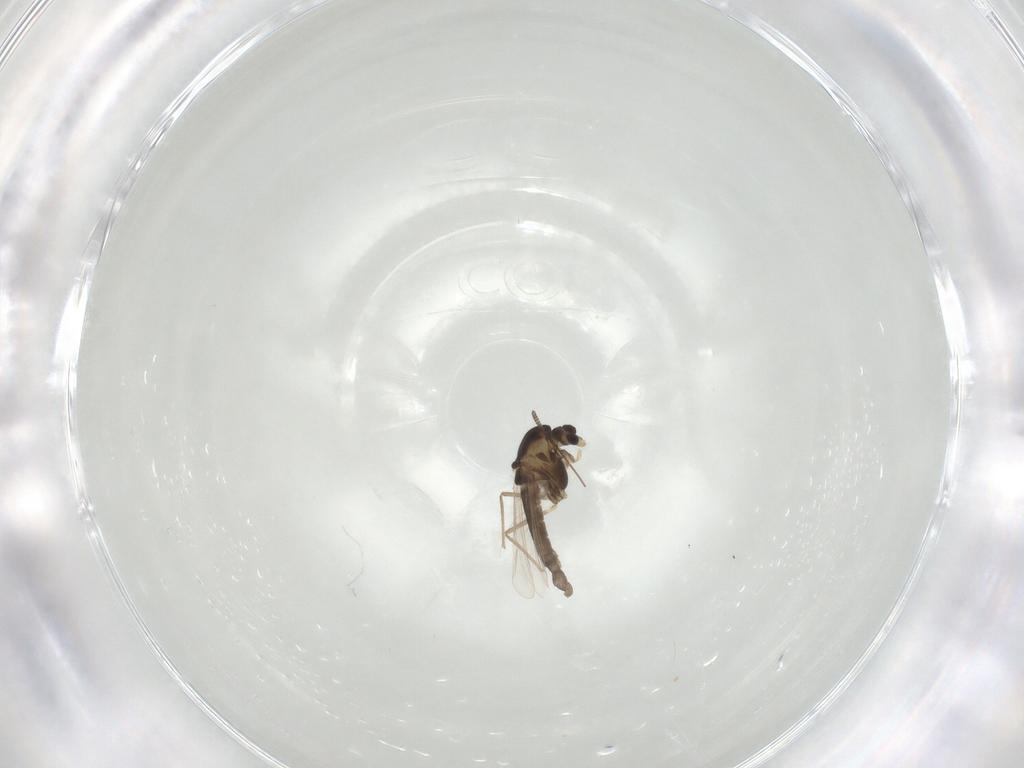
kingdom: Animalia
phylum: Arthropoda
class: Insecta
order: Diptera
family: Chironomidae
